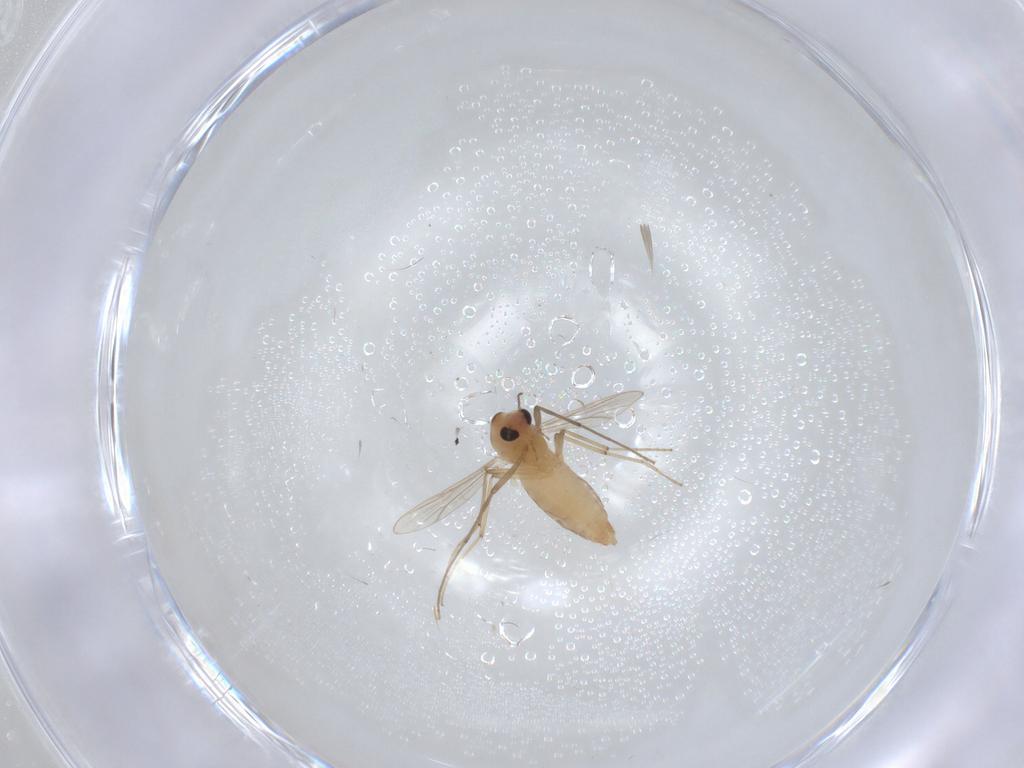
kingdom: Animalia
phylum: Arthropoda
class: Insecta
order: Diptera
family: Chironomidae
